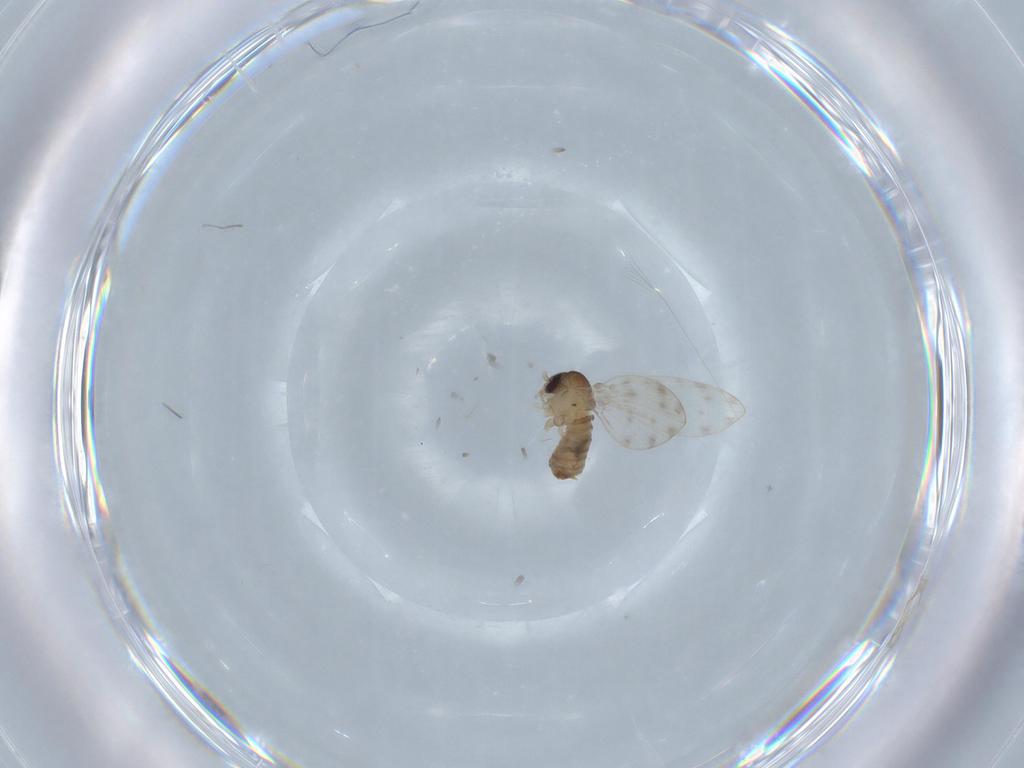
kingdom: Animalia
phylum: Arthropoda
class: Insecta
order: Diptera
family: Psychodidae
